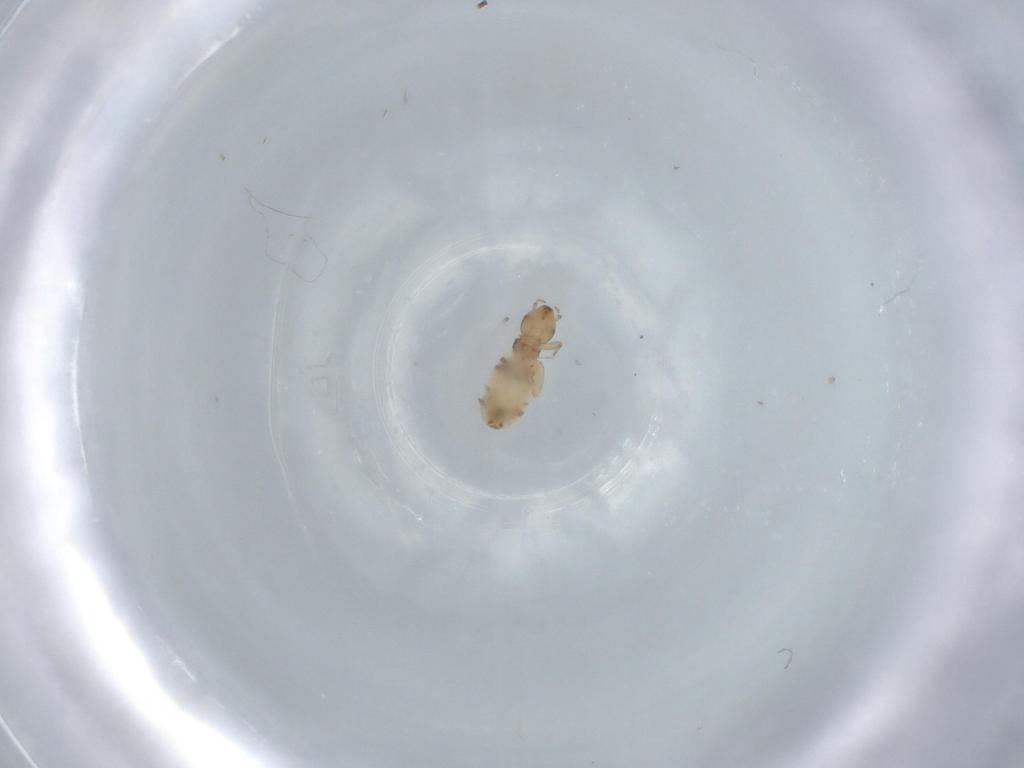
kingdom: Animalia
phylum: Arthropoda
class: Insecta
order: Psocodea
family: Liposcelididae
